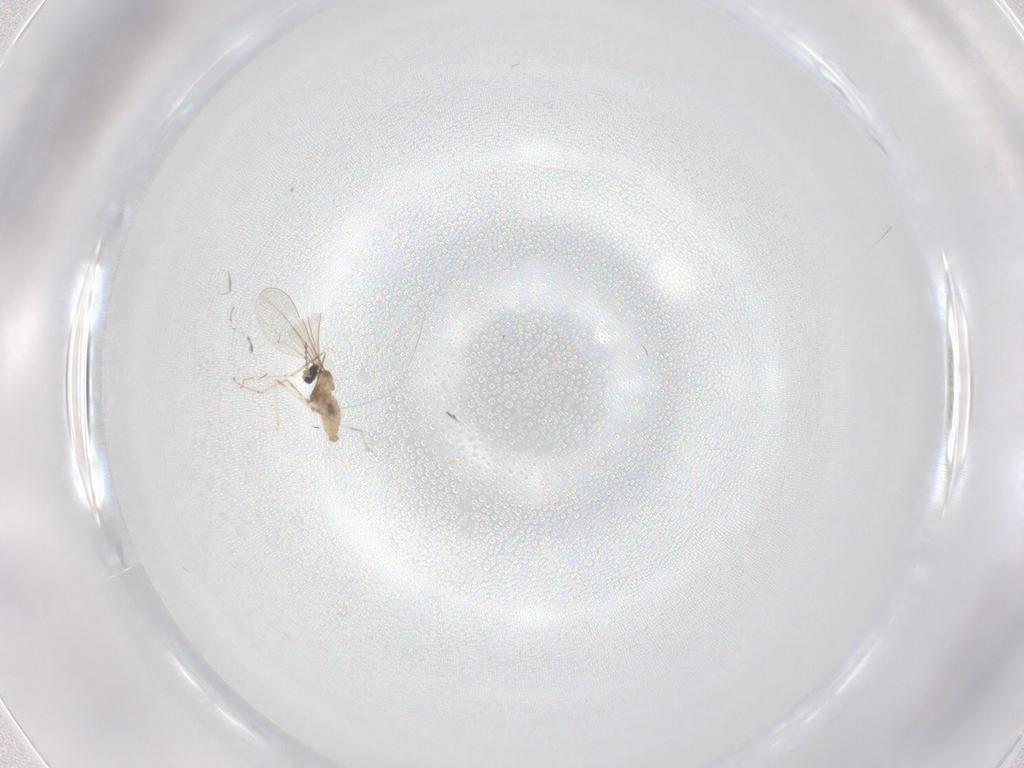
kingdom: Animalia
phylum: Arthropoda
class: Insecta
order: Diptera
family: Cecidomyiidae
